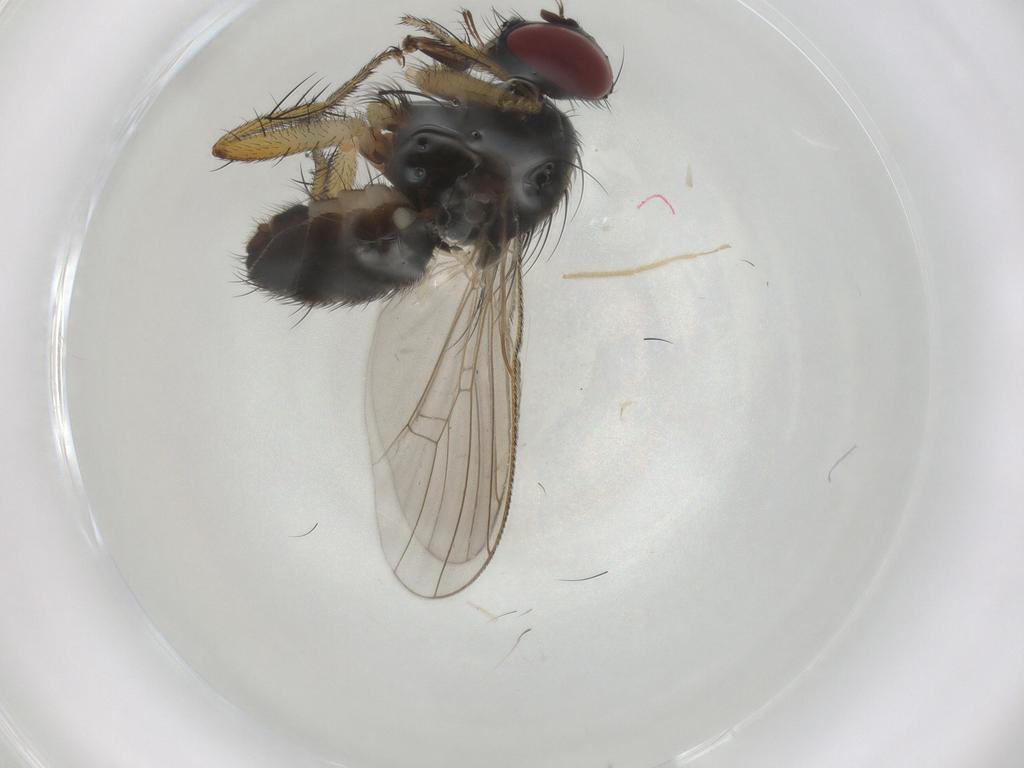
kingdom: Animalia
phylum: Arthropoda
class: Insecta
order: Diptera
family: Muscidae
